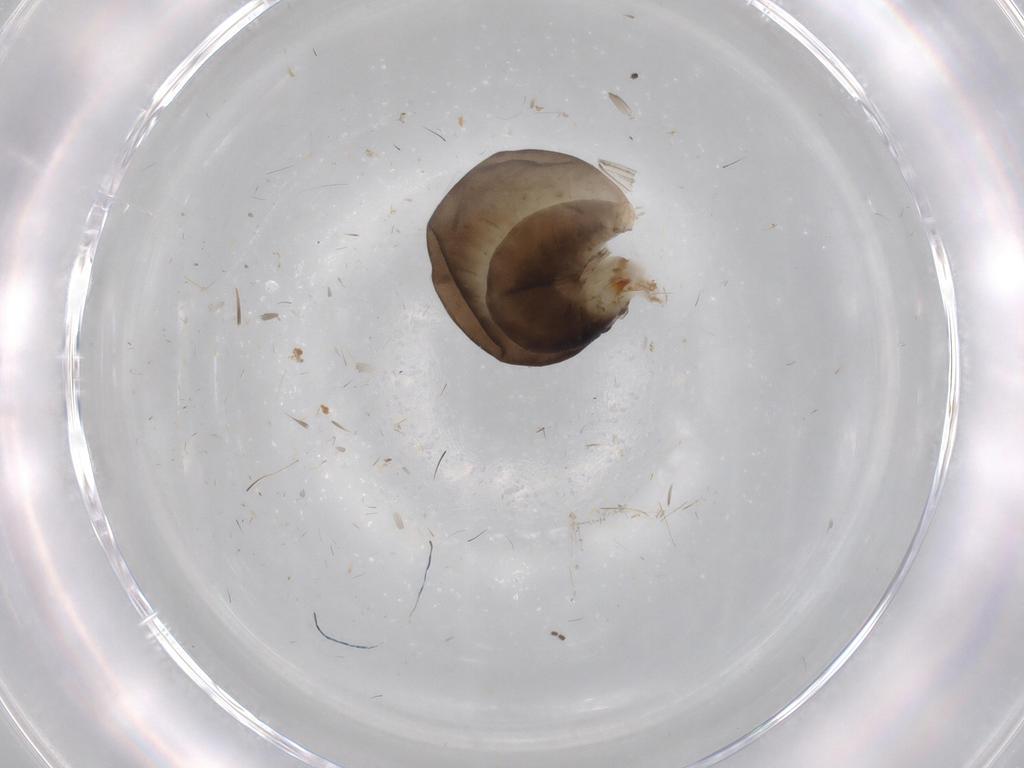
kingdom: Animalia
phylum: Arthropoda
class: Insecta
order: Hymenoptera
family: Dryinidae
